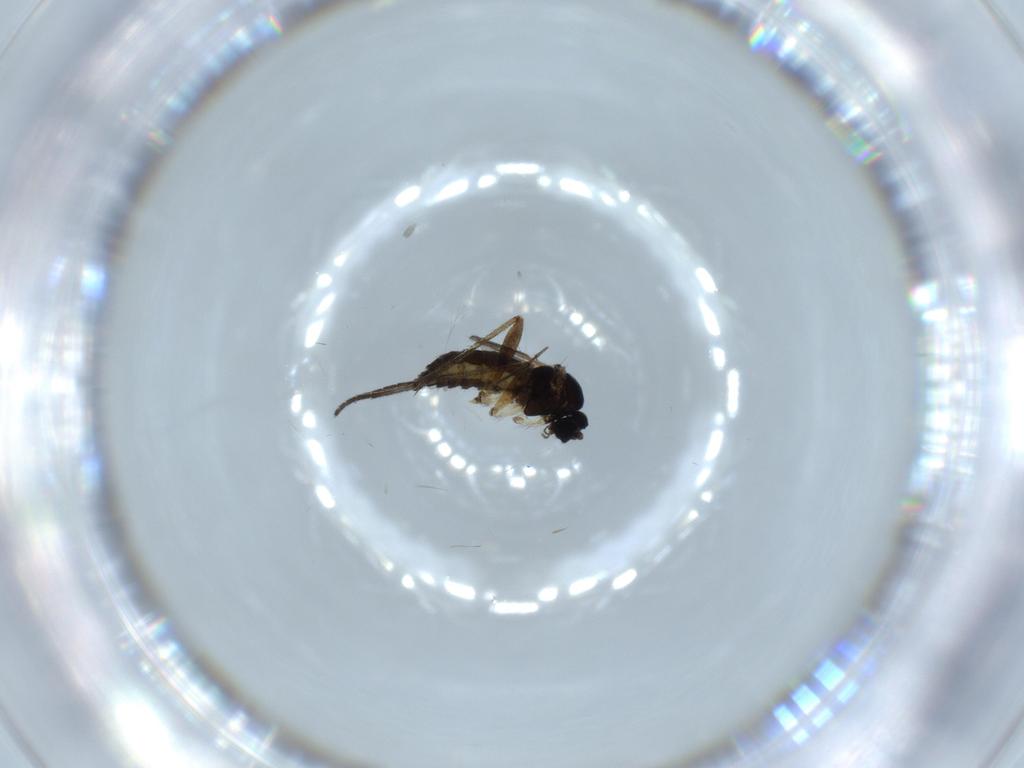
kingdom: Animalia
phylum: Arthropoda
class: Insecta
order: Diptera
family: Sciaridae
